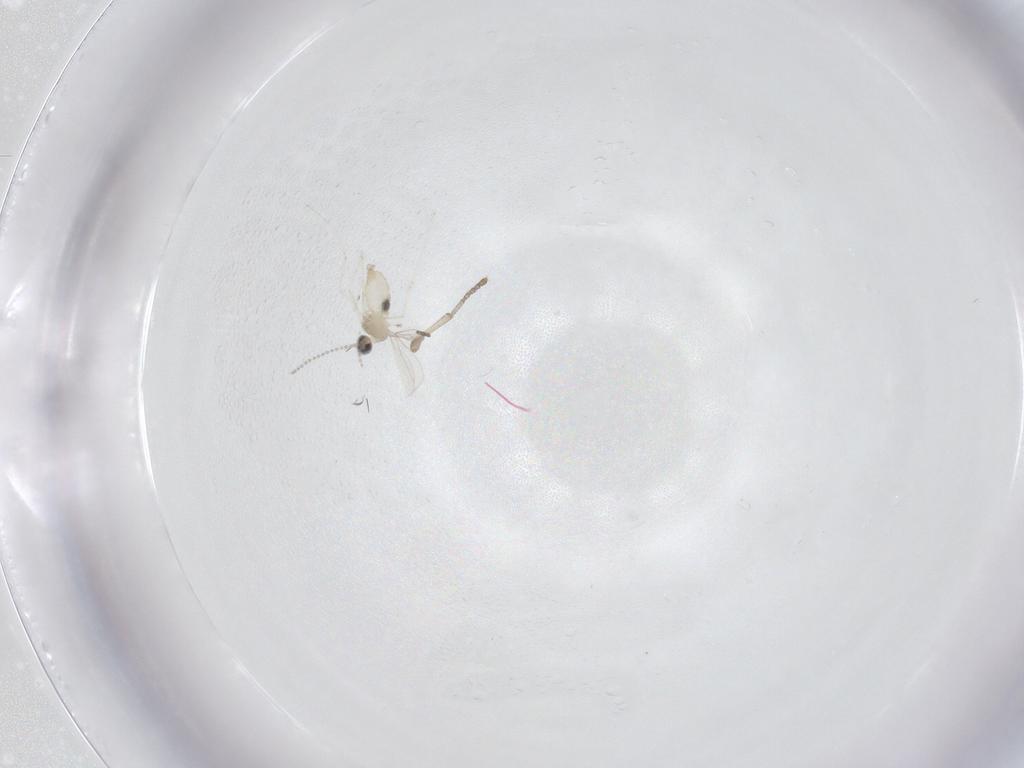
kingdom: Animalia
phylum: Arthropoda
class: Insecta
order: Diptera
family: Cecidomyiidae
